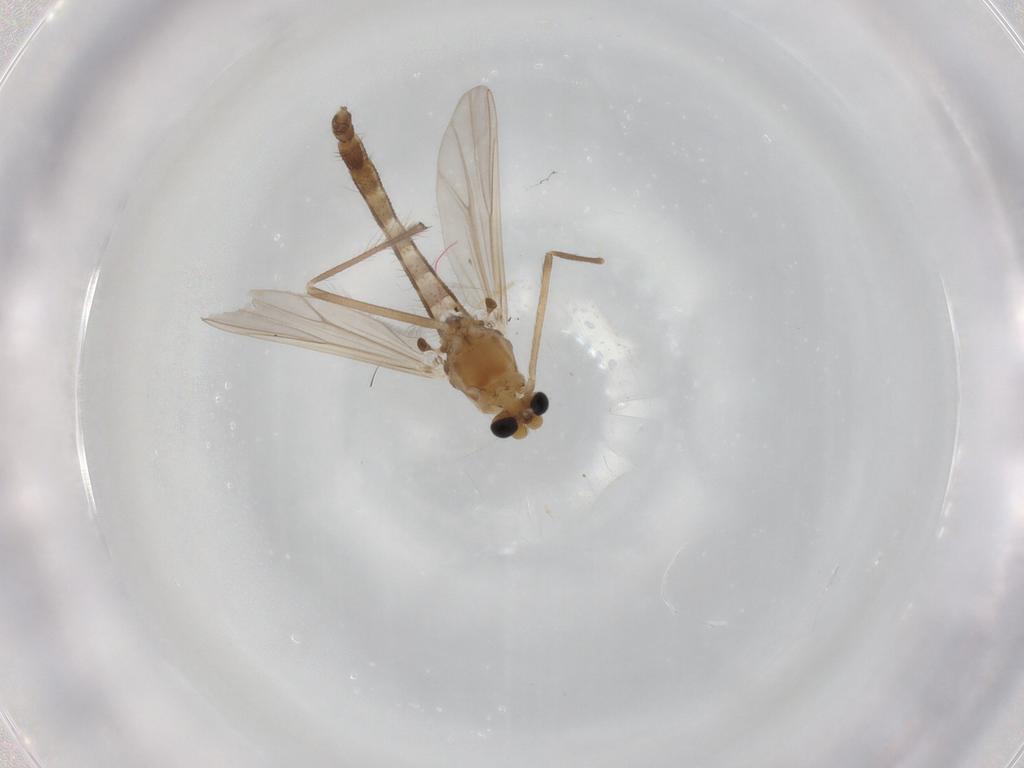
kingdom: Animalia
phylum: Arthropoda
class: Insecta
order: Diptera
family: Chironomidae
